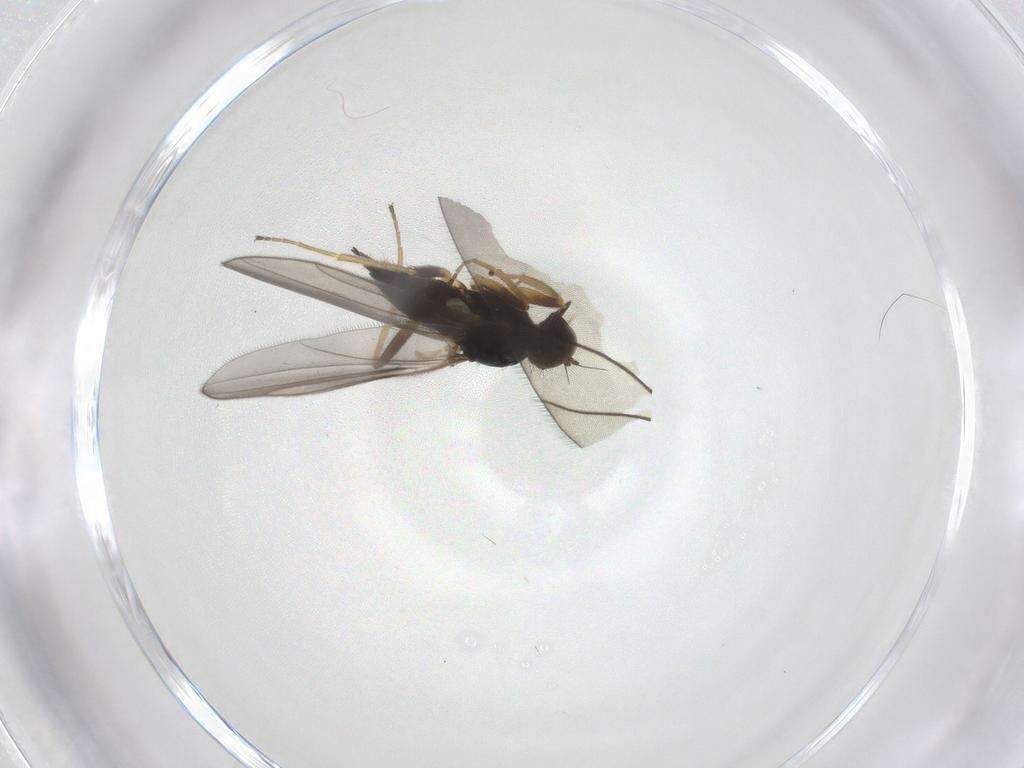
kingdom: Animalia
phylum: Arthropoda
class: Insecta
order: Diptera
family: Hybotidae
